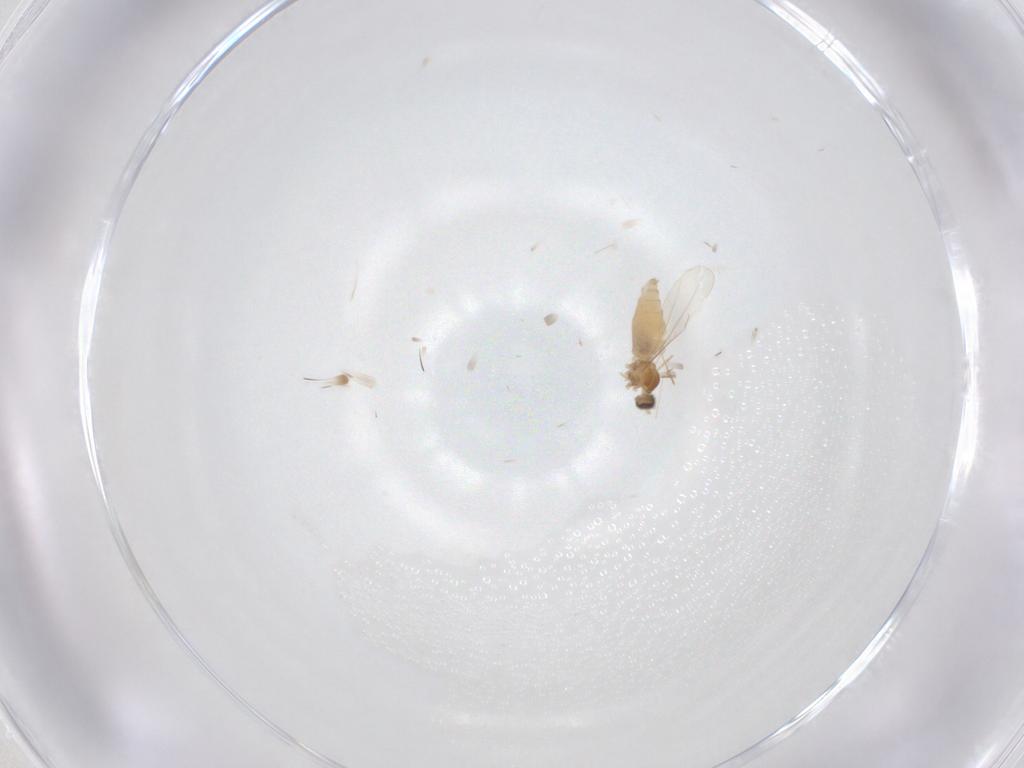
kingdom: Animalia
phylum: Arthropoda
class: Insecta
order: Diptera
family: Cecidomyiidae
